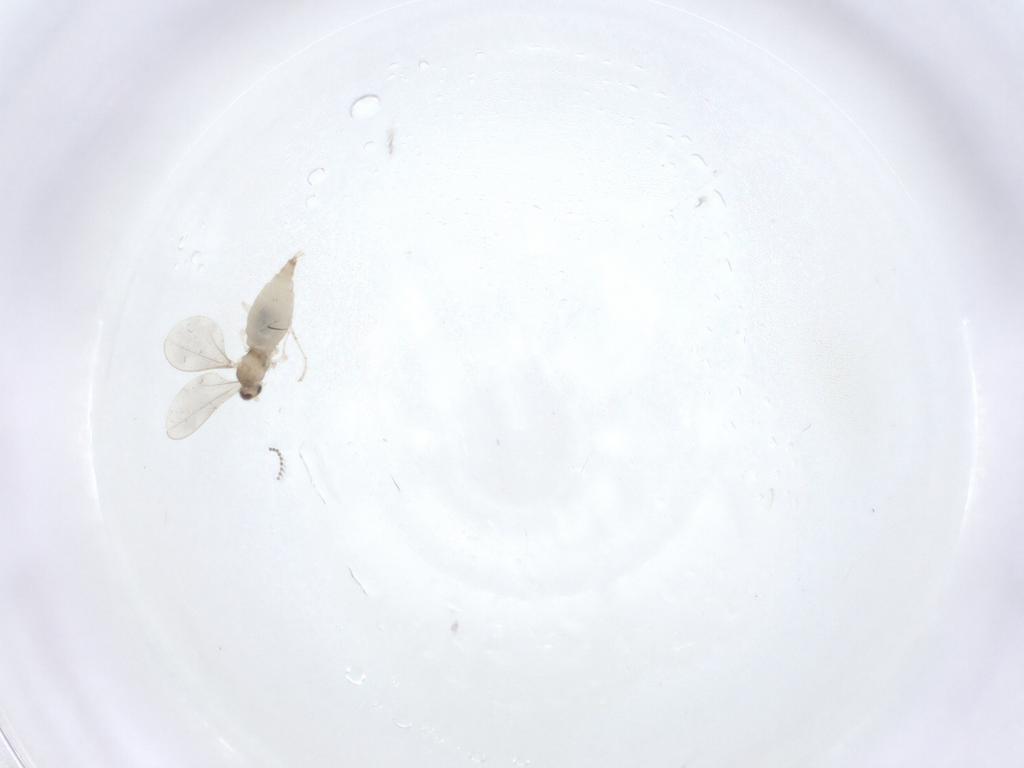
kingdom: Animalia
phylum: Arthropoda
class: Insecta
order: Diptera
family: Cecidomyiidae
